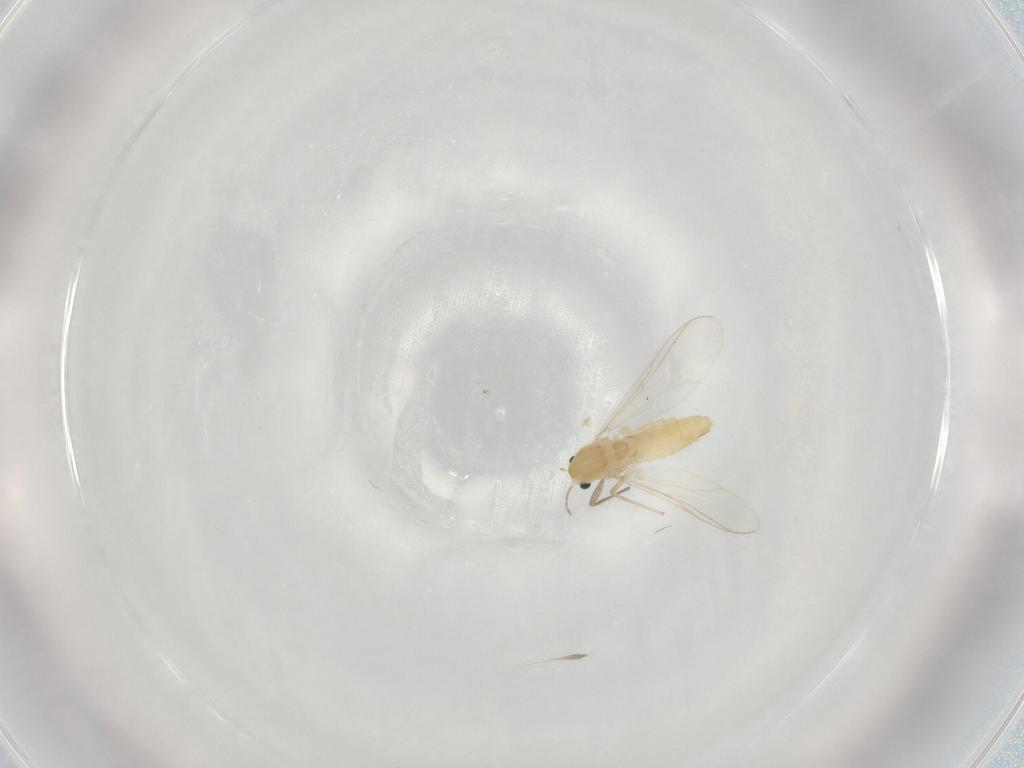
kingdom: Animalia
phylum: Arthropoda
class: Insecta
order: Diptera
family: Chironomidae
